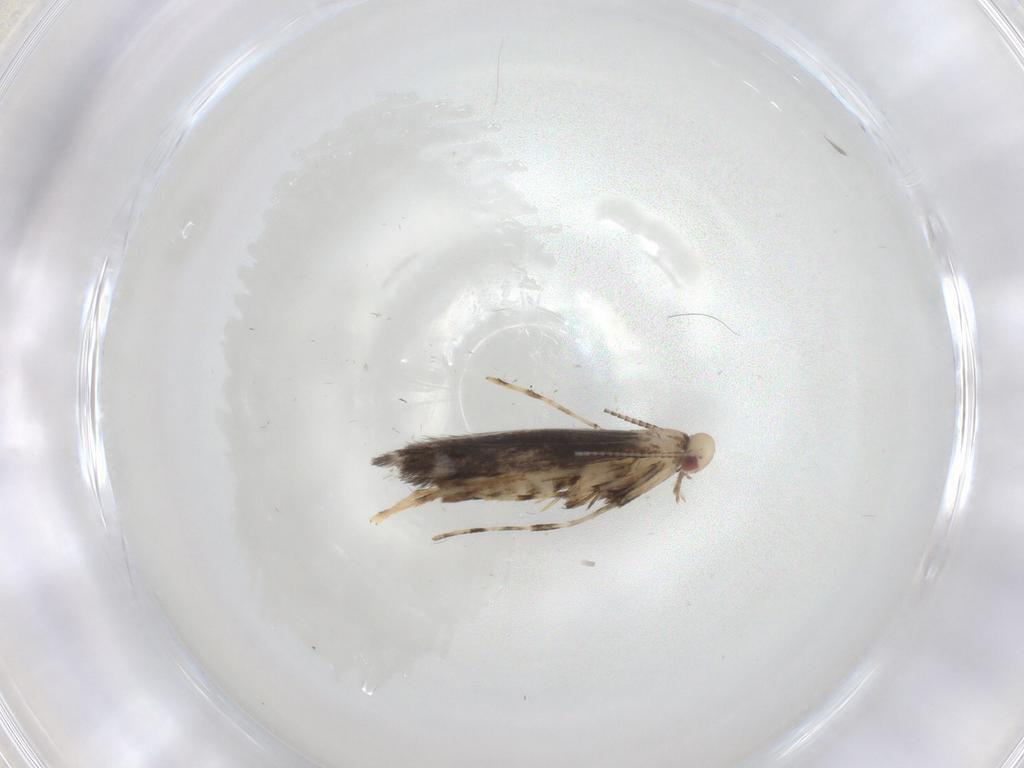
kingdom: Animalia
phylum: Arthropoda
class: Insecta
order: Lepidoptera
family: Gracillariidae
